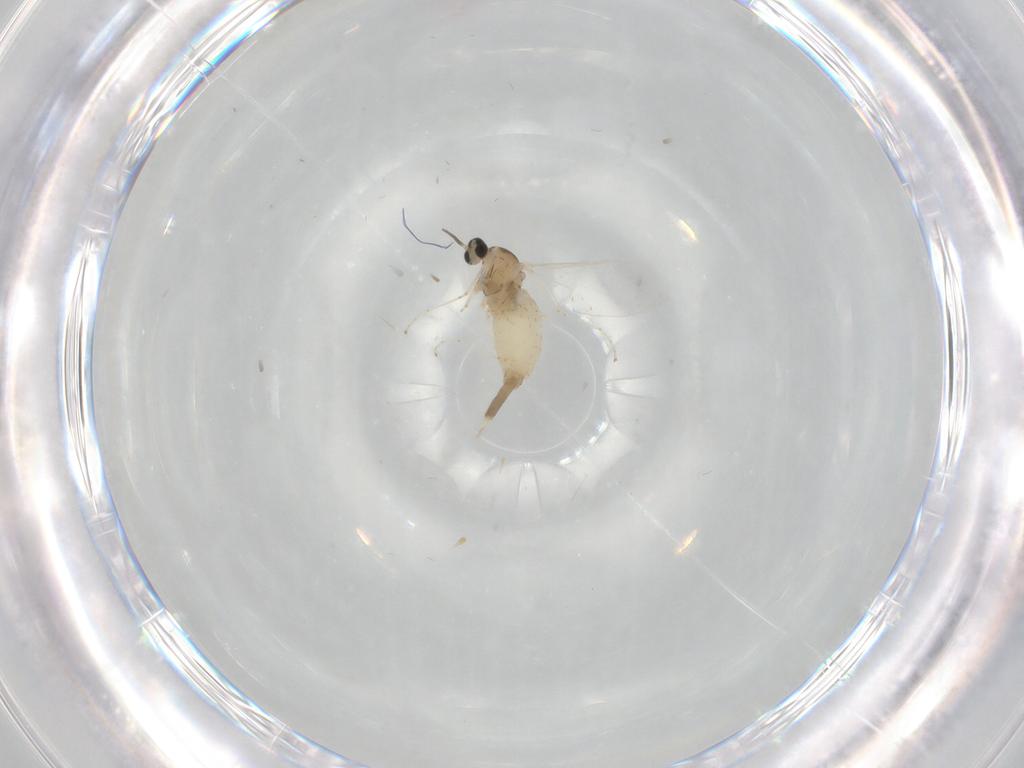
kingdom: Animalia
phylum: Arthropoda
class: Insecta
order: Diptera
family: Cecidomyiidae
